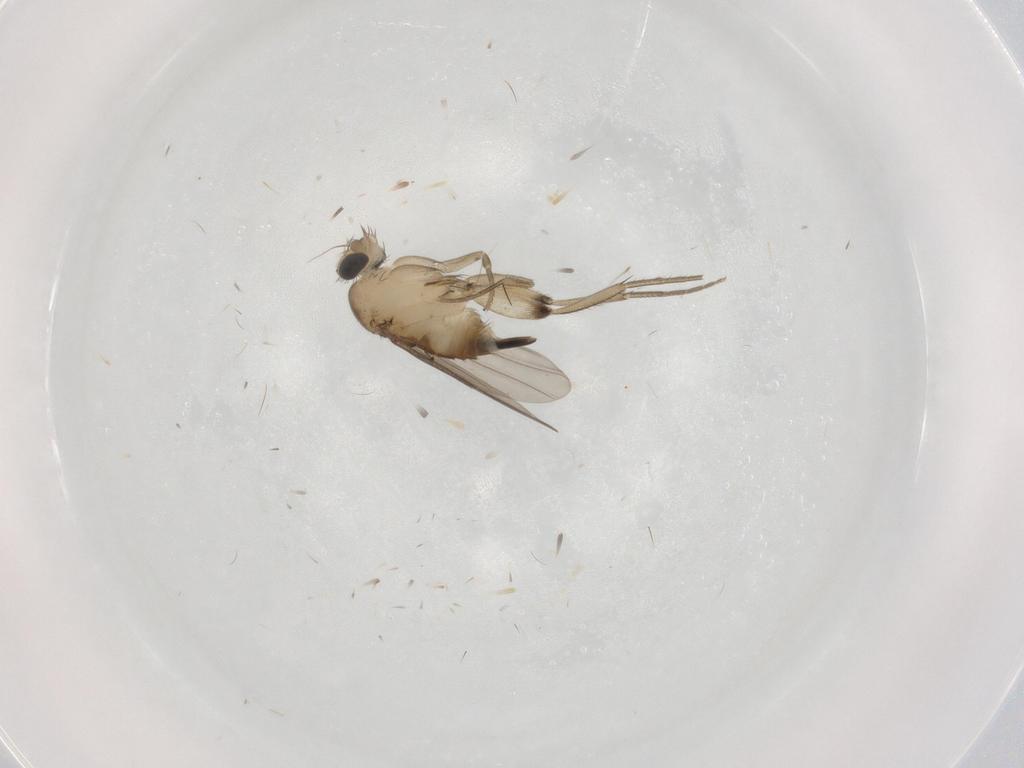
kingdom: Animalia
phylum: Arthropoda
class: Insecta
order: Diptera
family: Phoridae
